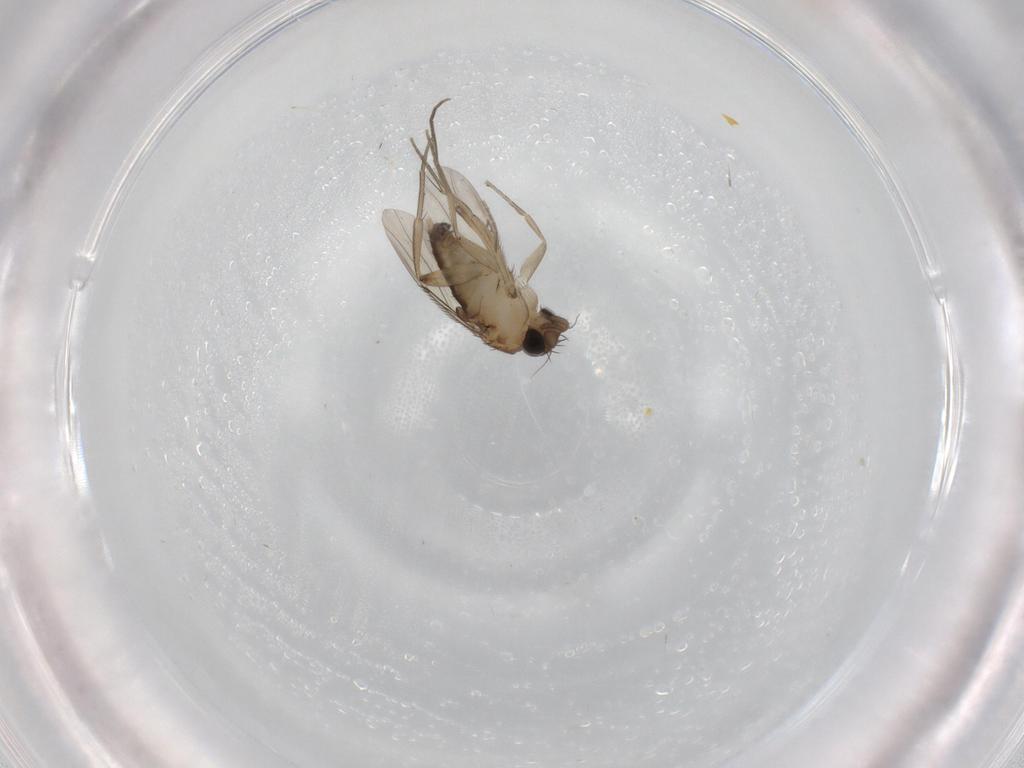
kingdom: Animalia
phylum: Arthropoda
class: Insecta
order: Diptera
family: Phoridae
